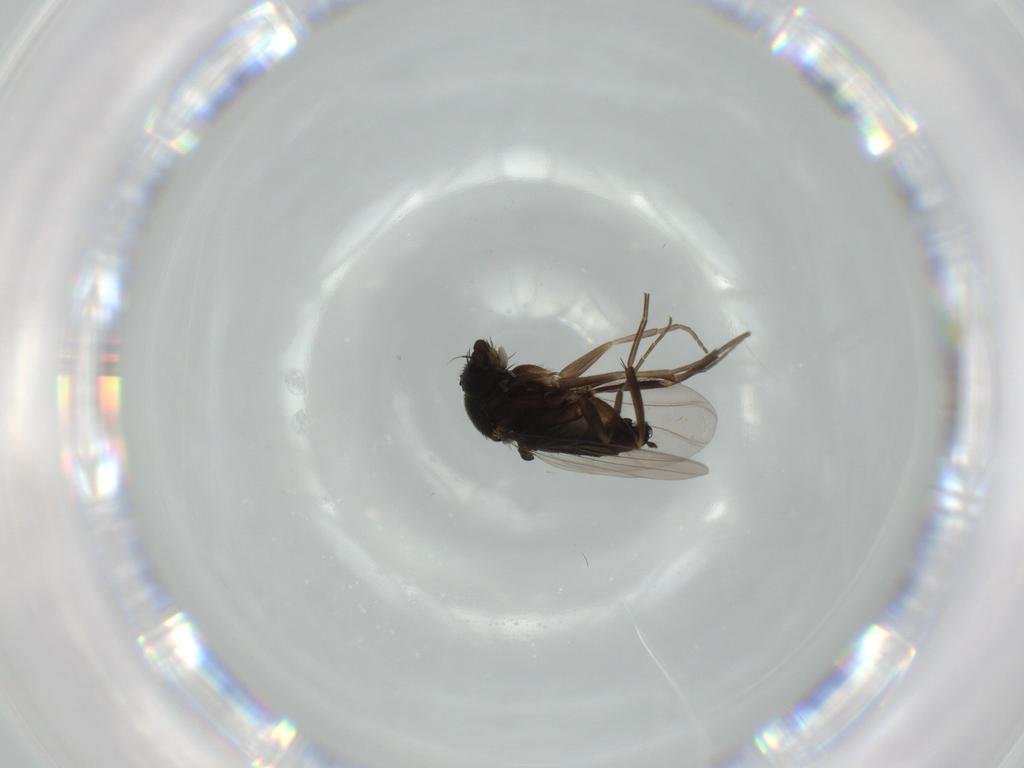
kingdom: Animalia
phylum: Arthropoda
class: Insecta
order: Diptera
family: Phoridae
